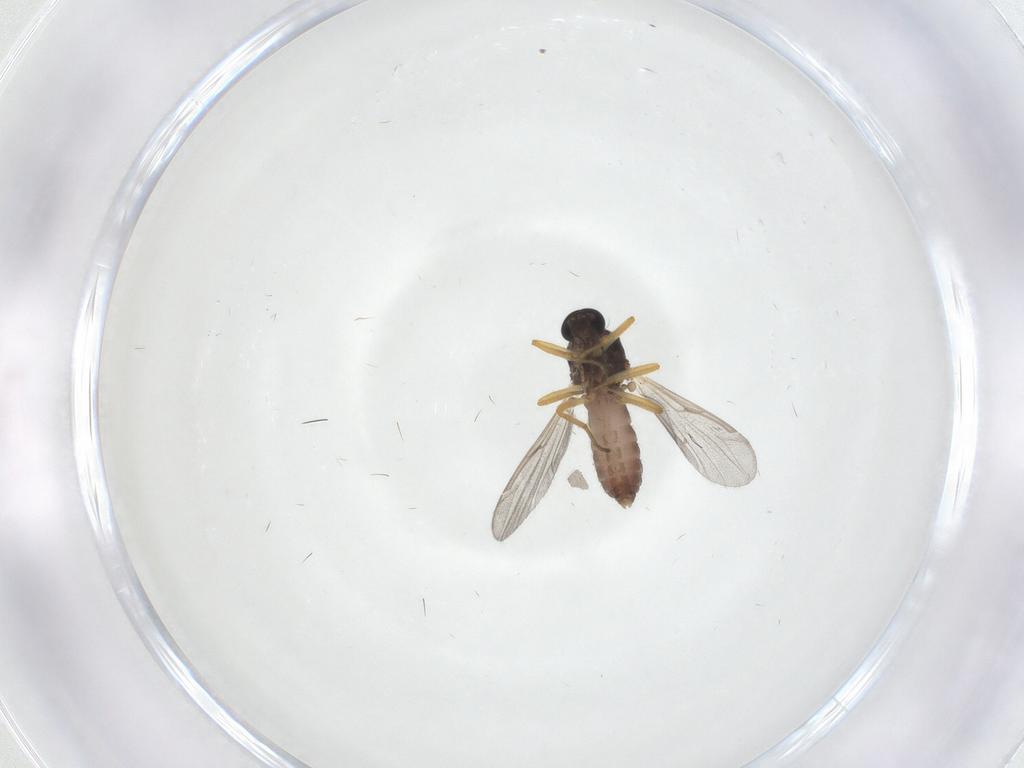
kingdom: Animalia
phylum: Arthropoda
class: Insecta
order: Diptera
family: Ceratopogonidae
